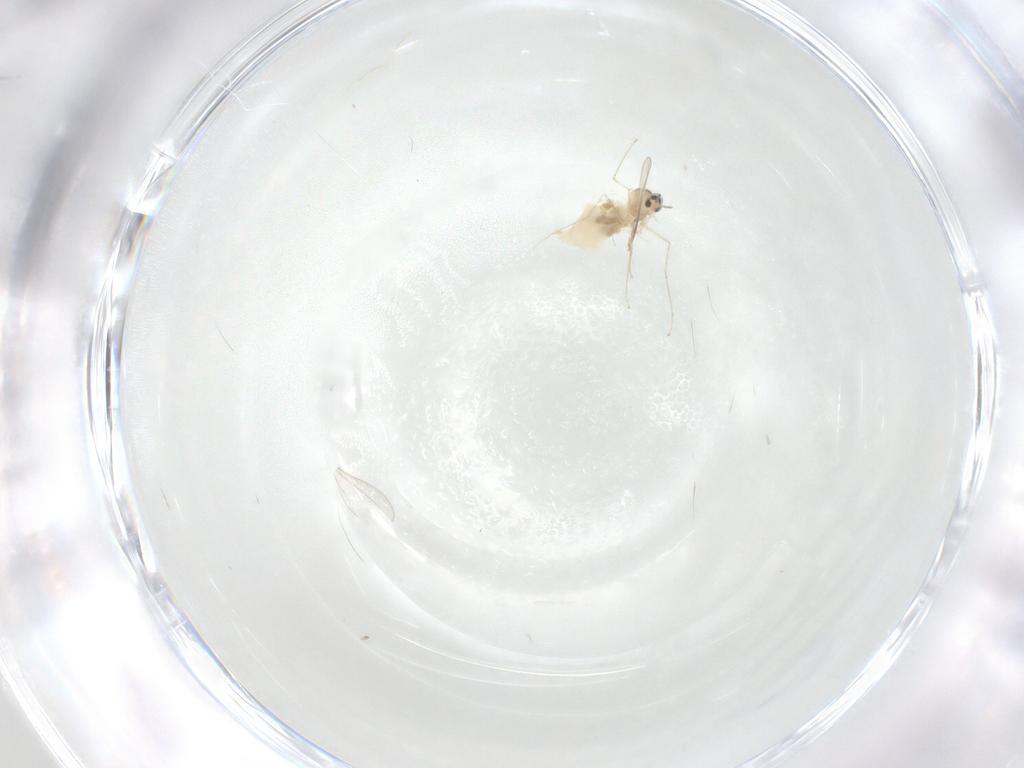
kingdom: Animalia
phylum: Arthropoda
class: Insecta
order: Diptera
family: Cecidomyiidae
